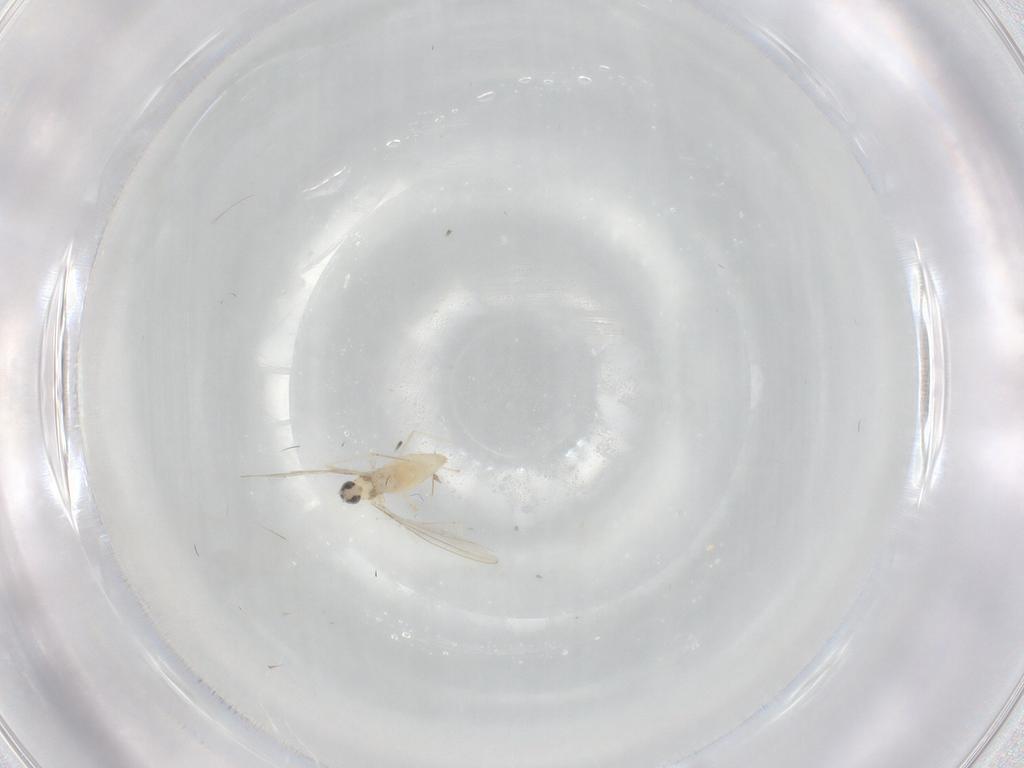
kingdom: Animalia
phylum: Arthropoda
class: Insecta
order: Diptera
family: Cecidomyiidae
